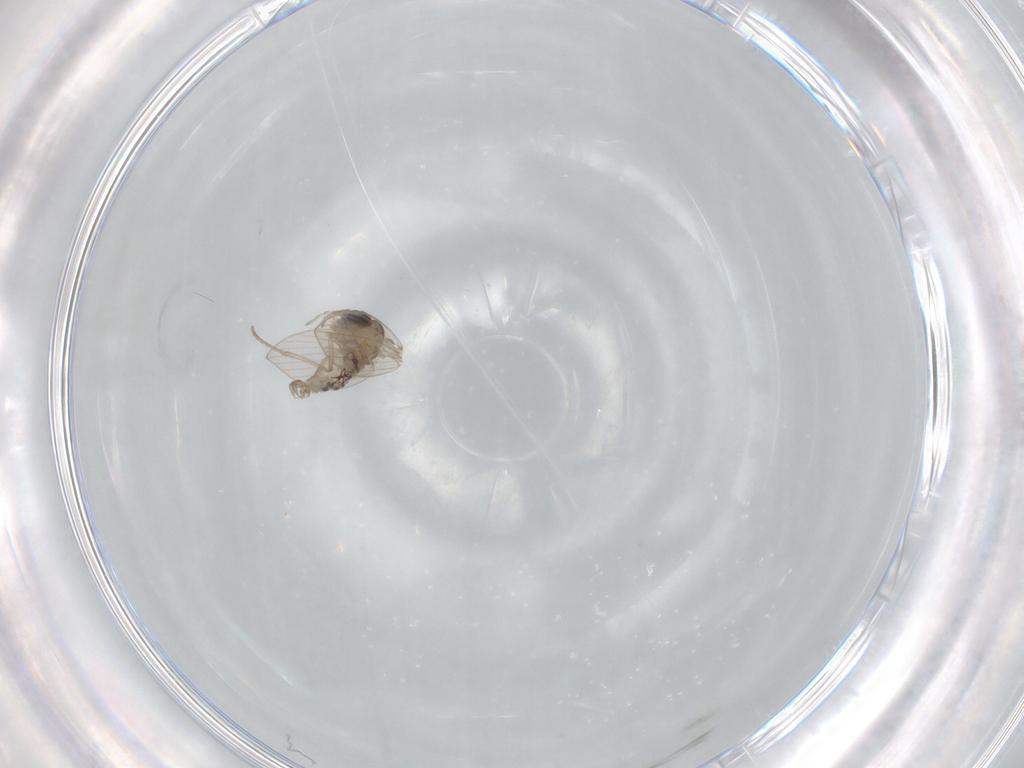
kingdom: Animalia
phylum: Arthropoda
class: Insecta
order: Diptera
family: Psychodidae
